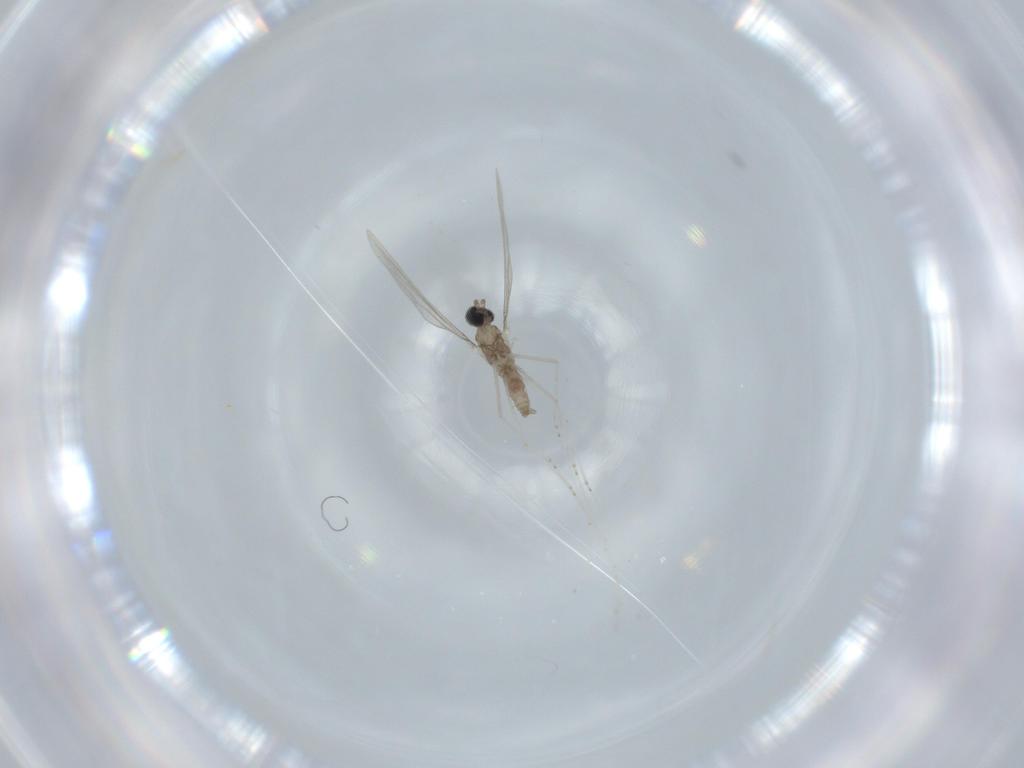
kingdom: Animalia
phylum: Arthropoda
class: Insecta
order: Diptera
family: Cecidomyiidae
